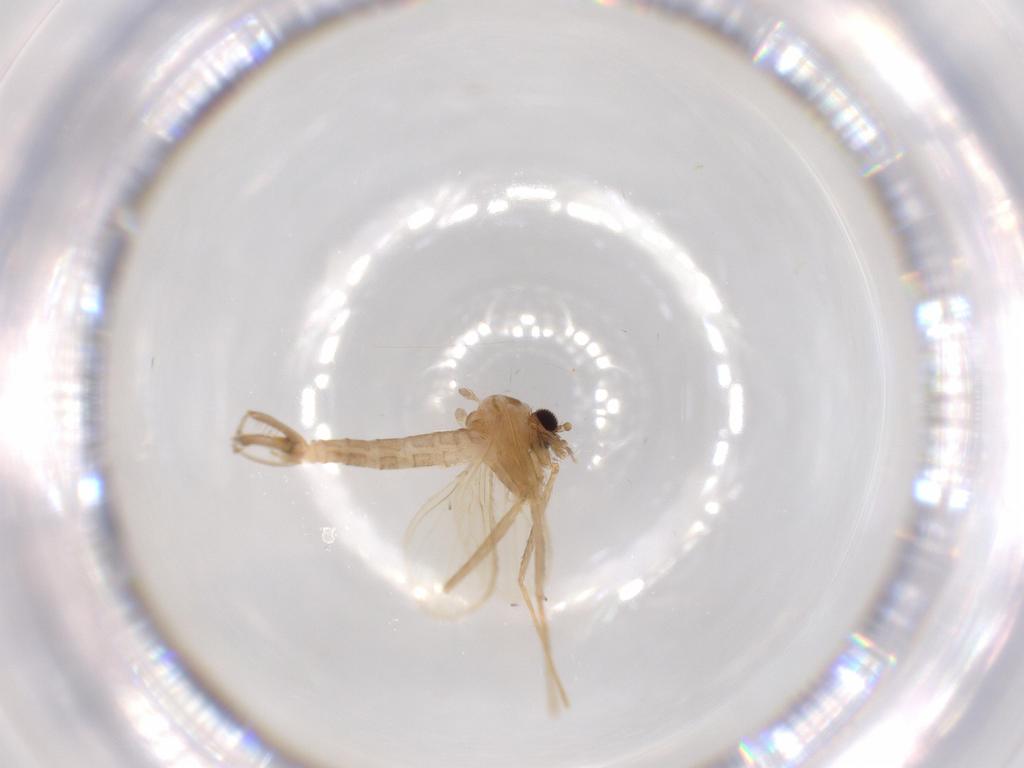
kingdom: Animalia
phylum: Arthropoda
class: Insecta
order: Diptera
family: Psychodidae
